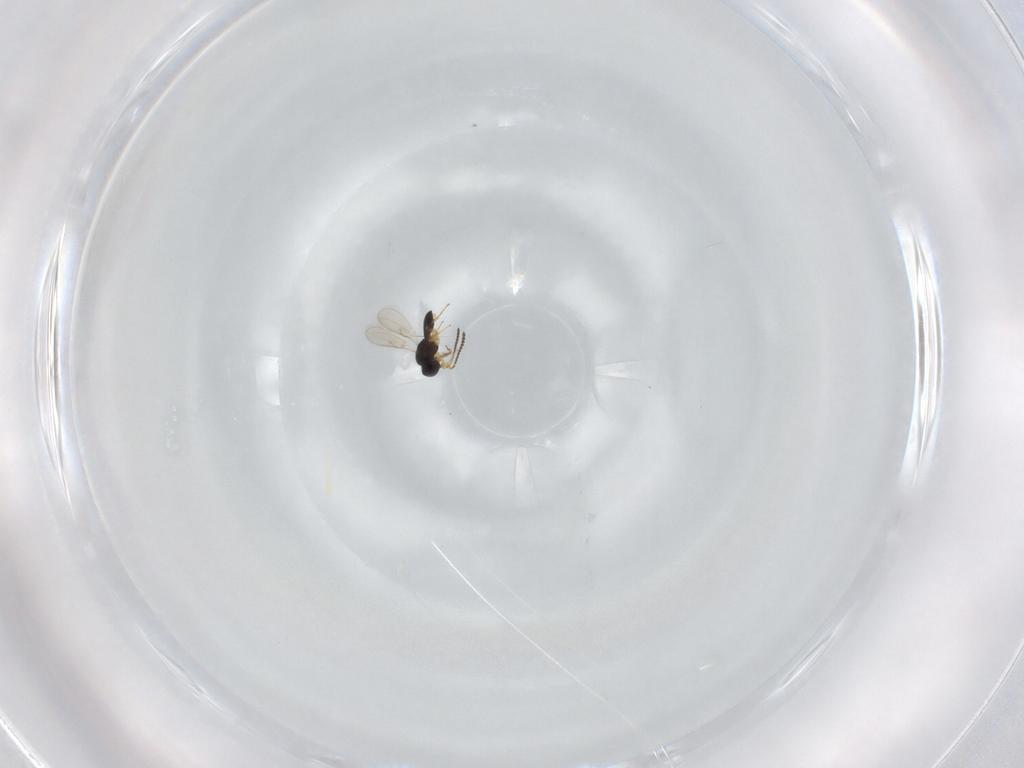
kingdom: Animalia
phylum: Arthropoda
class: Insecta
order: Hymenoptera
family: Scelionidae
